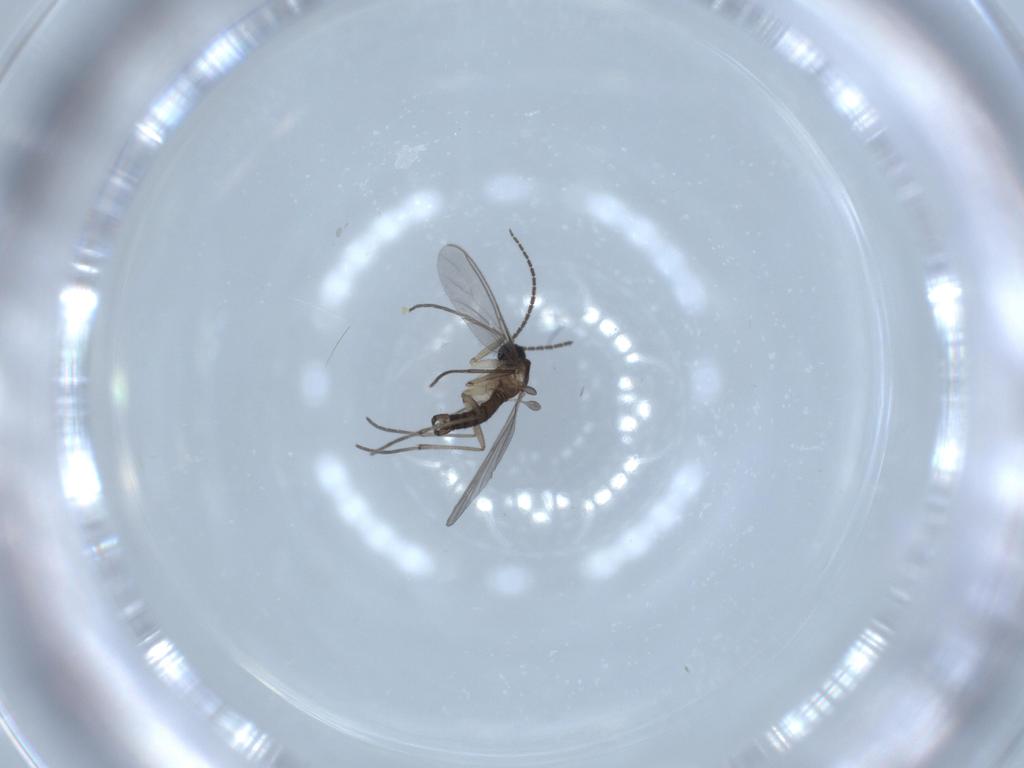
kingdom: Animalia
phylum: Arthropoda
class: Insecta
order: Diptera
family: Sciaridae
